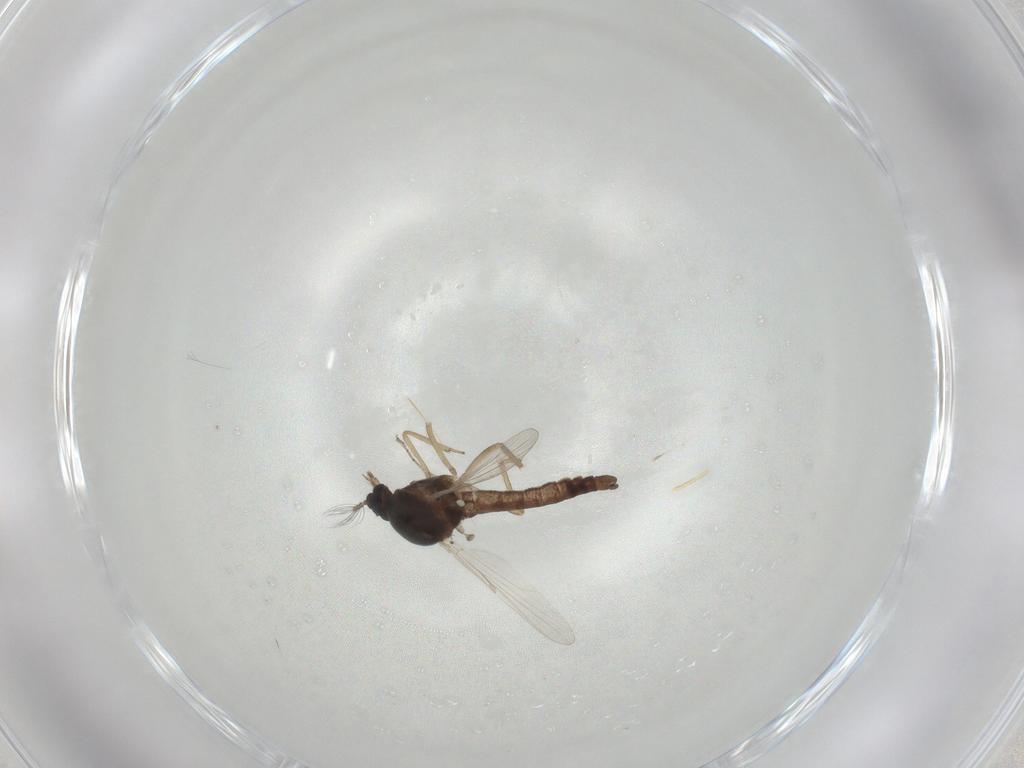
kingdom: Animalia
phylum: Arthropoda
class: Insecta
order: Diptera
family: Ceratopogonidae
